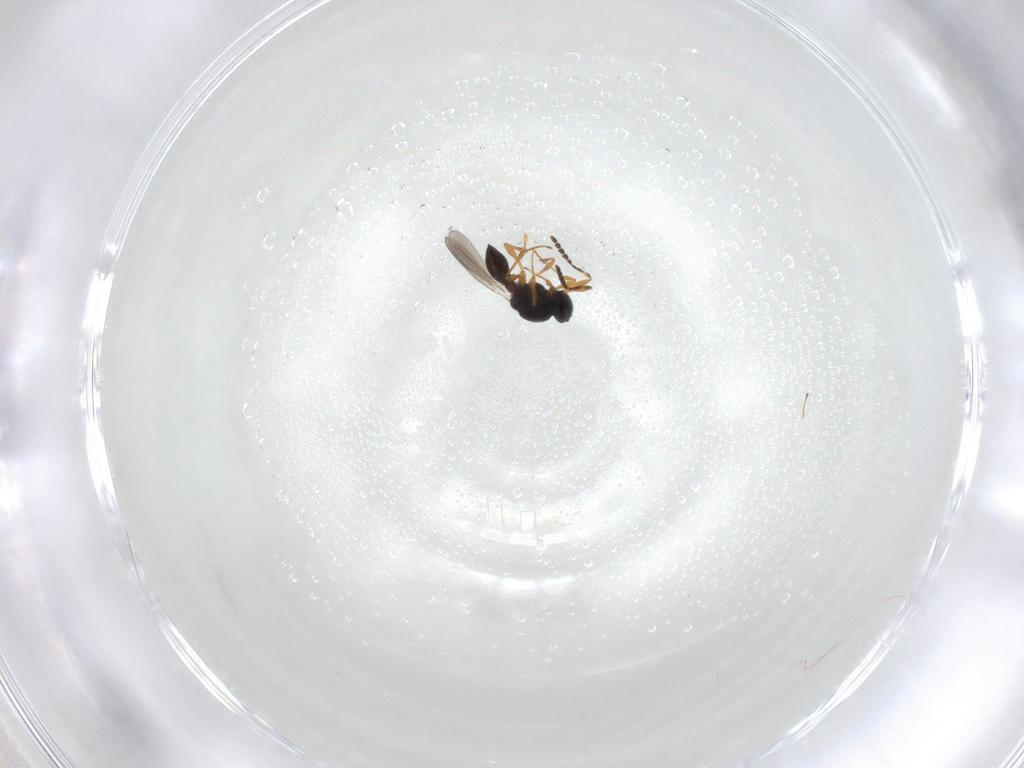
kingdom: Animalia
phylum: Arthropoda
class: Insecta
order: Hymenoptera
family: Platygastridae
